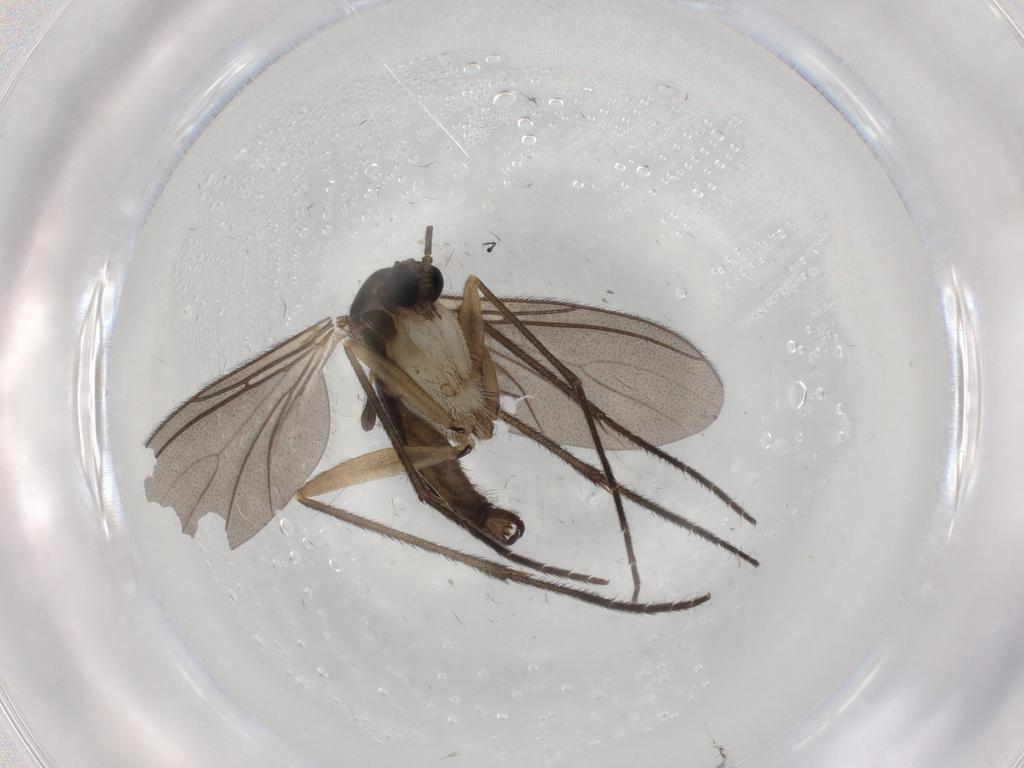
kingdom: Animalia
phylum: Arthropoda
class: Insecta
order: Diptera
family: Sciaridae
